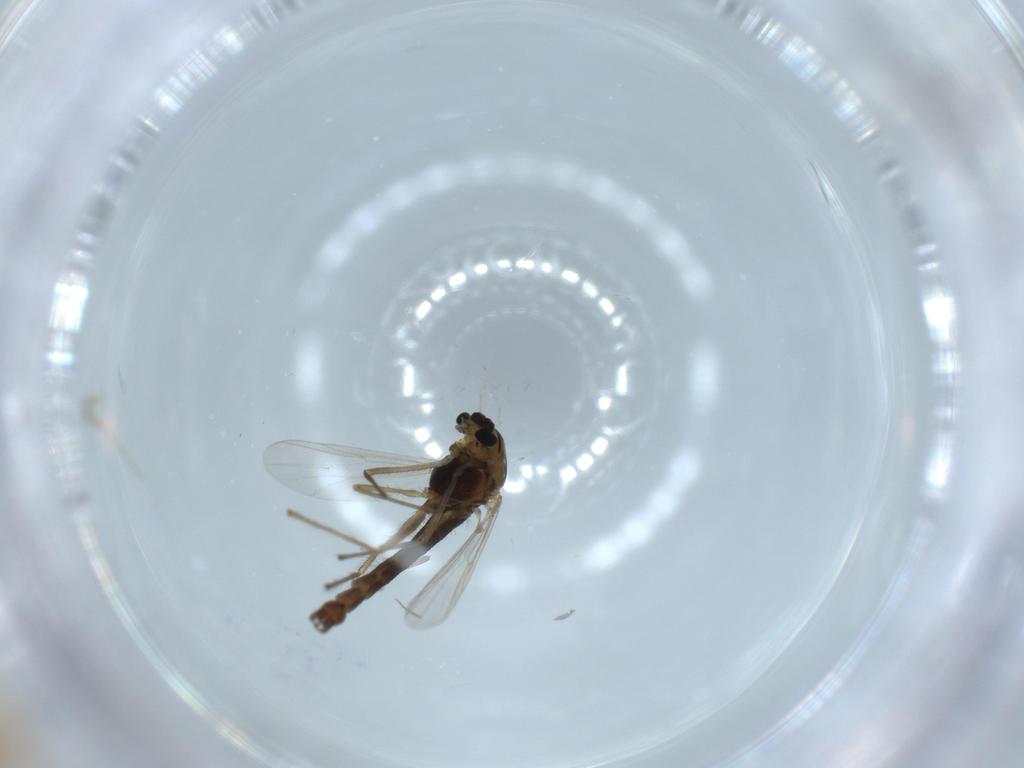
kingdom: Animalia
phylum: Arthropoda
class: Insecta
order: Diptera
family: Chironomidae
